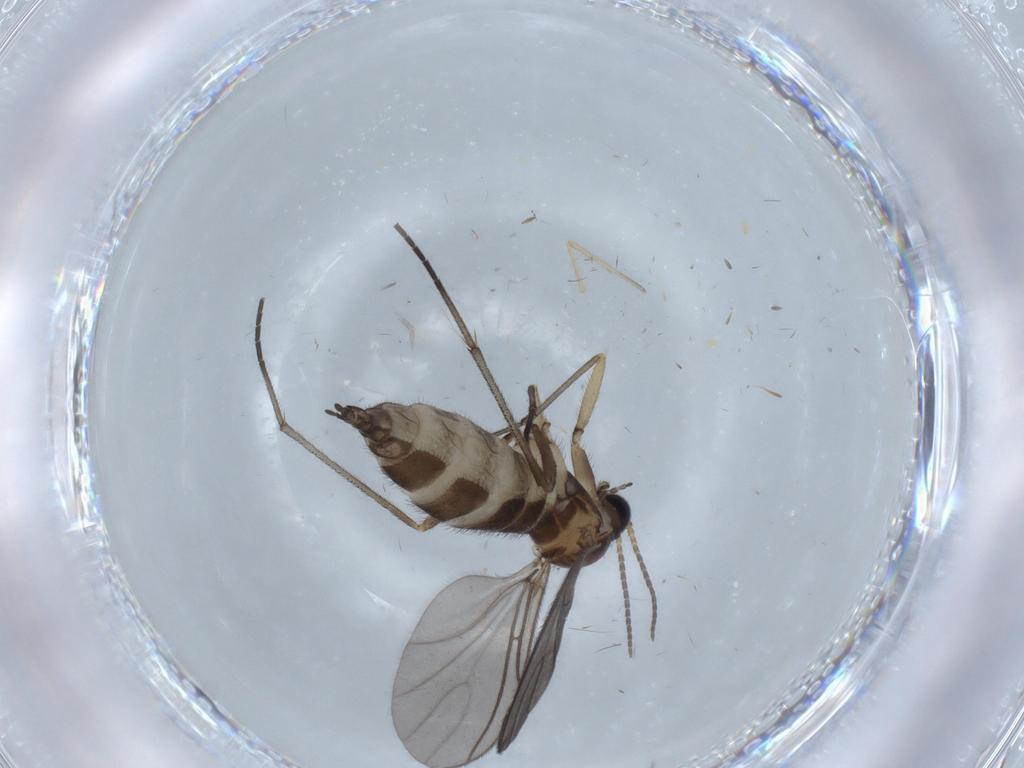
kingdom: Animalia
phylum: Arthropoda
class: Insecta
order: Diptera
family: Sciaridae
